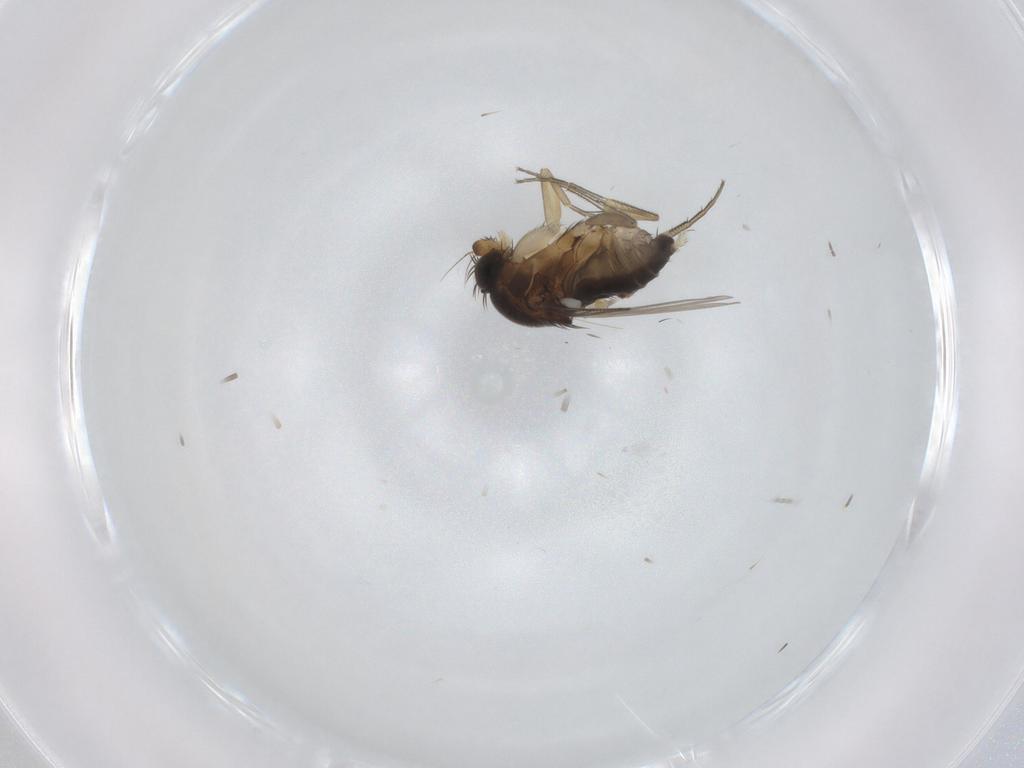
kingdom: Animalia
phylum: Arthropoda
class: Insecta
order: Diptera
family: Phoridae
